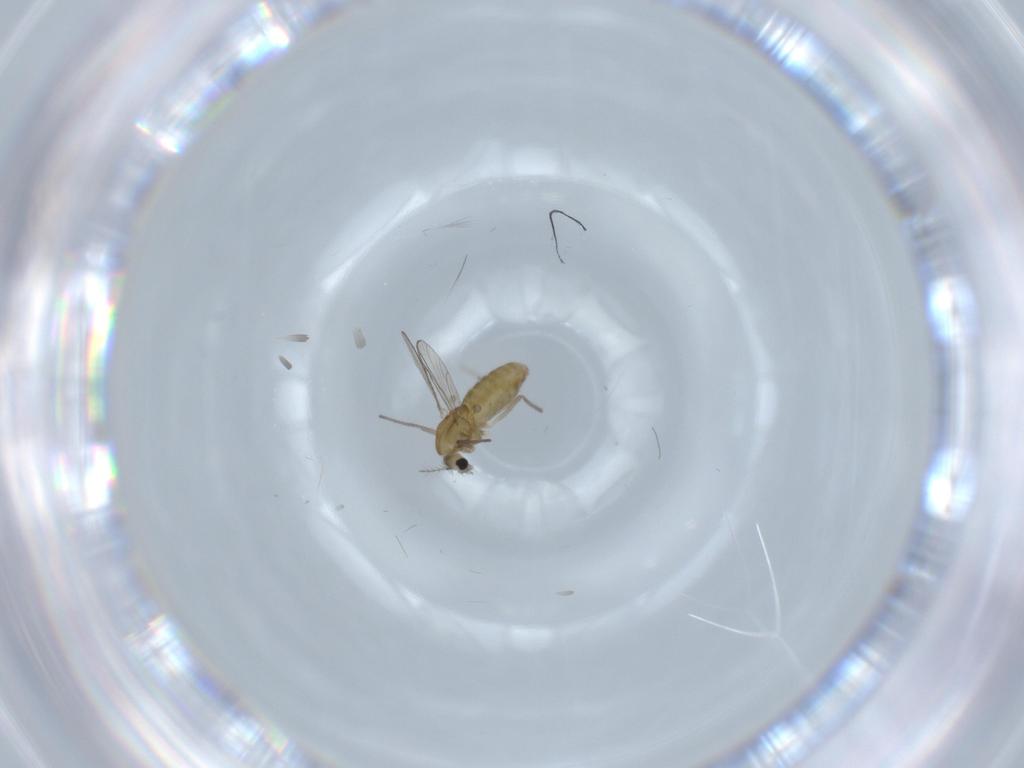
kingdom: Animalia
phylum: Arthropoda
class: Insecta
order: Diptera
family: Chironomidae
